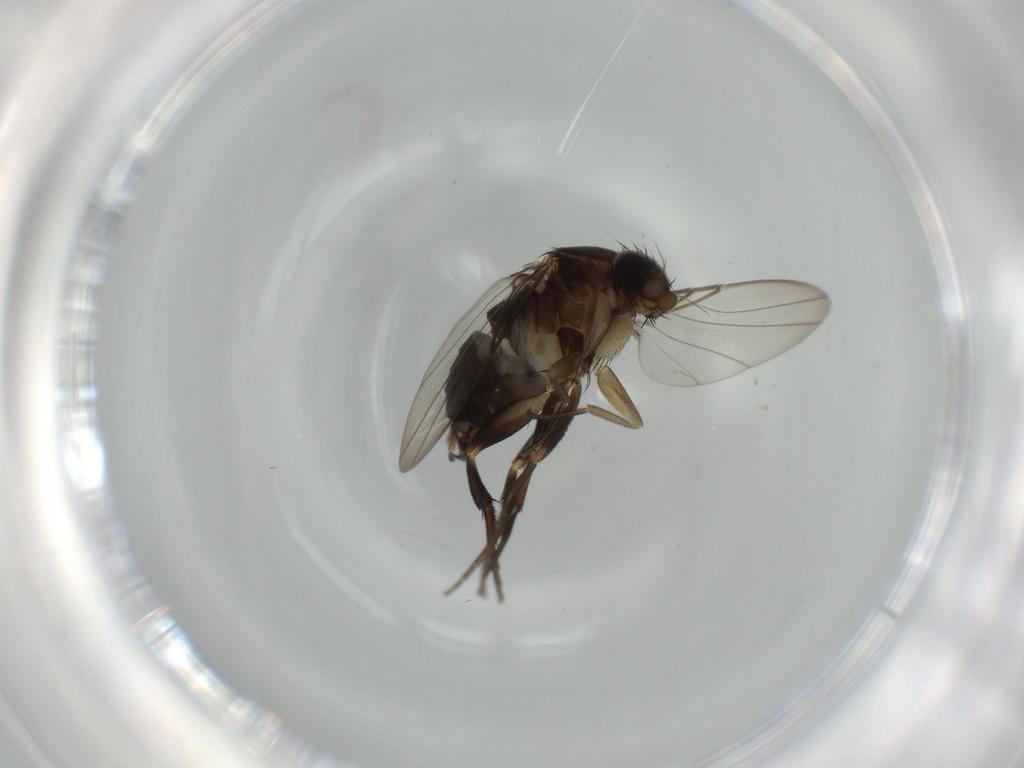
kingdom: Animalia
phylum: Arthropoda
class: Insecta
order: Diptera
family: Phoridae
